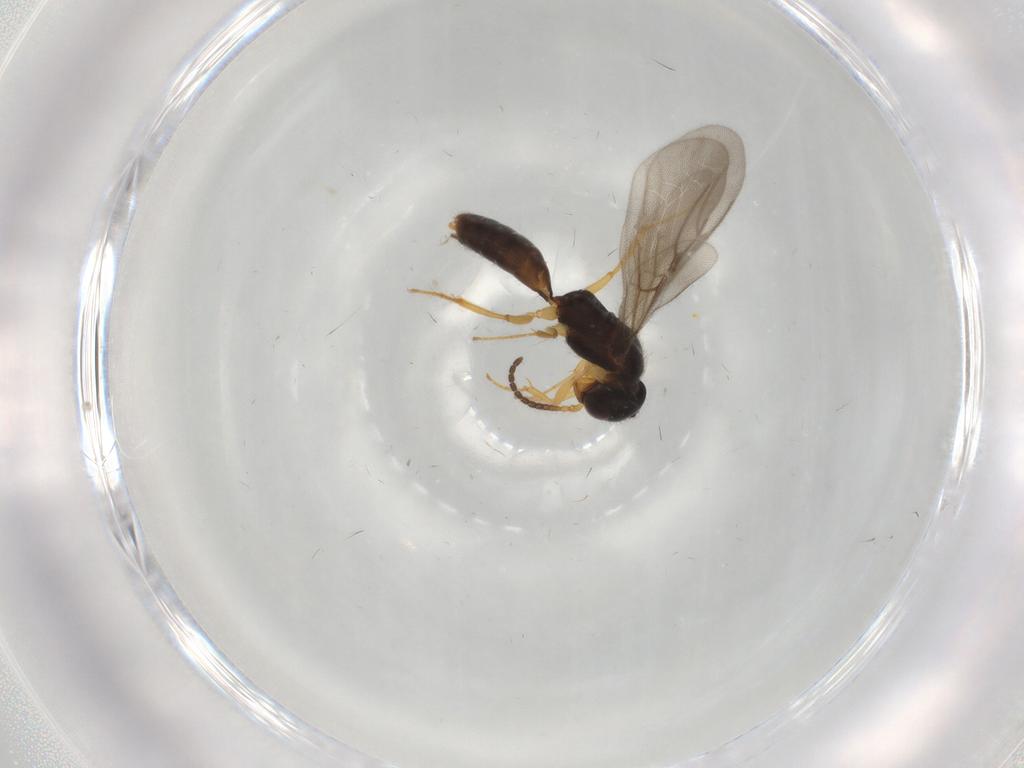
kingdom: Animalia
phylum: Arthropoda
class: Insecta
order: Hymenoptera
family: Bethylidae
